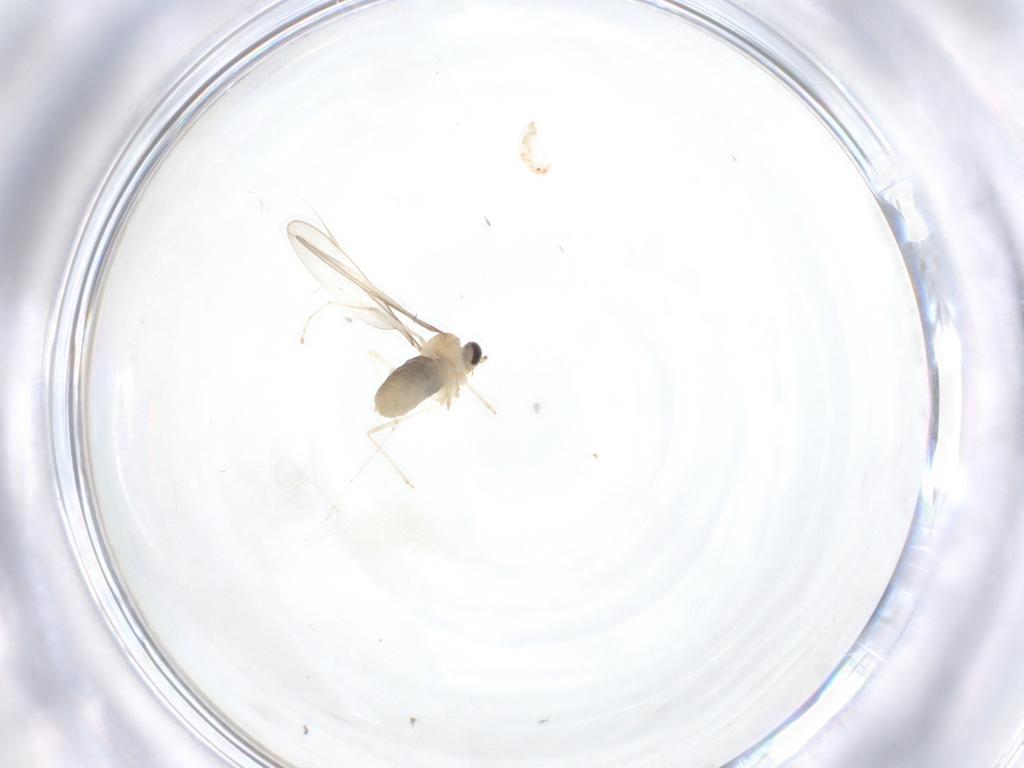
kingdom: Animalia
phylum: Arthropoda
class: Insecta
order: Diptera
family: Cecidomyiidae
